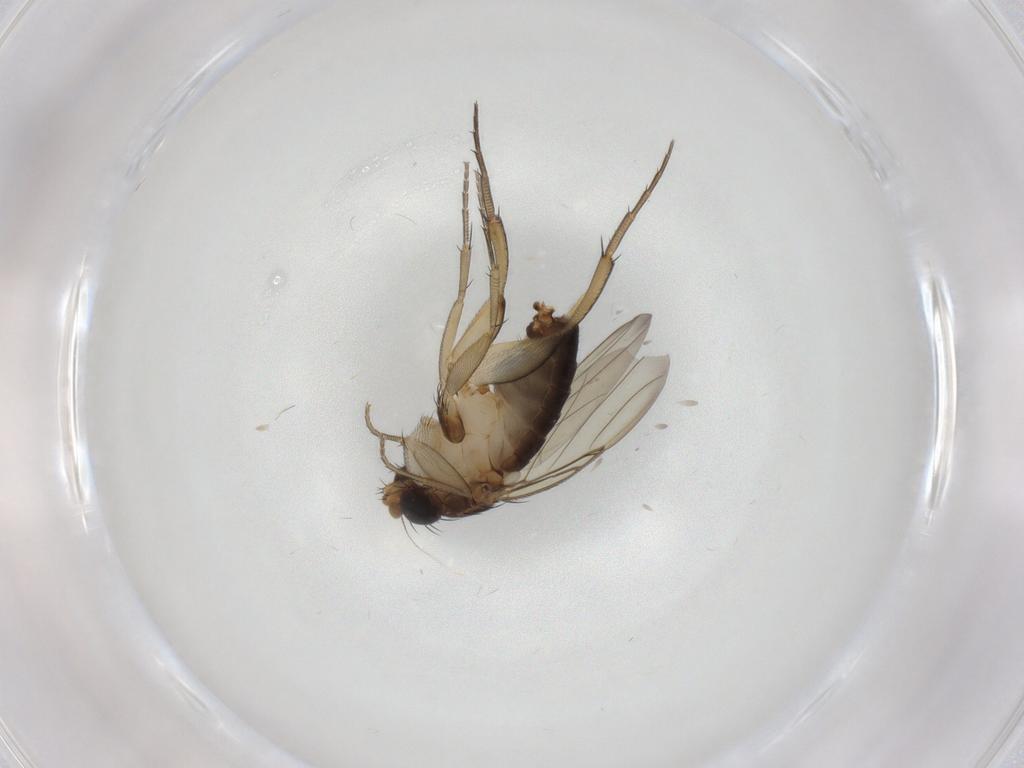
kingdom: Animalia
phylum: Arthropoda
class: Insecta
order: Diptera
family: Phoridae
